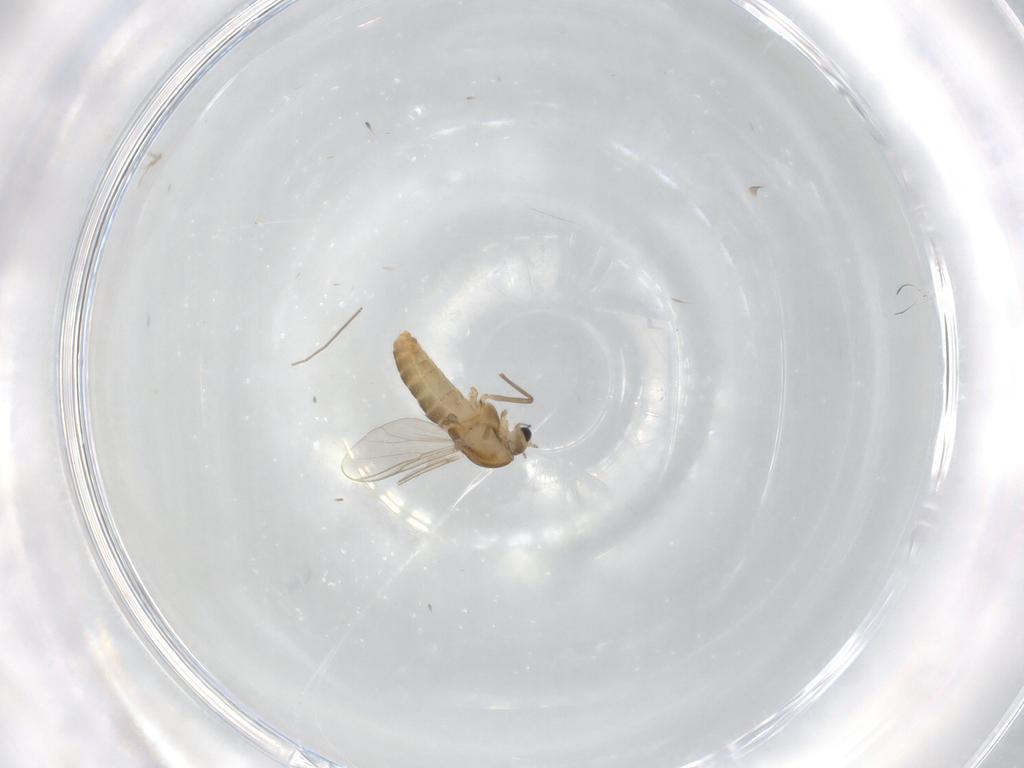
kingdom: Animalia
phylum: Arthropoda
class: Insecta
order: Diptera
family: Chironomidae
